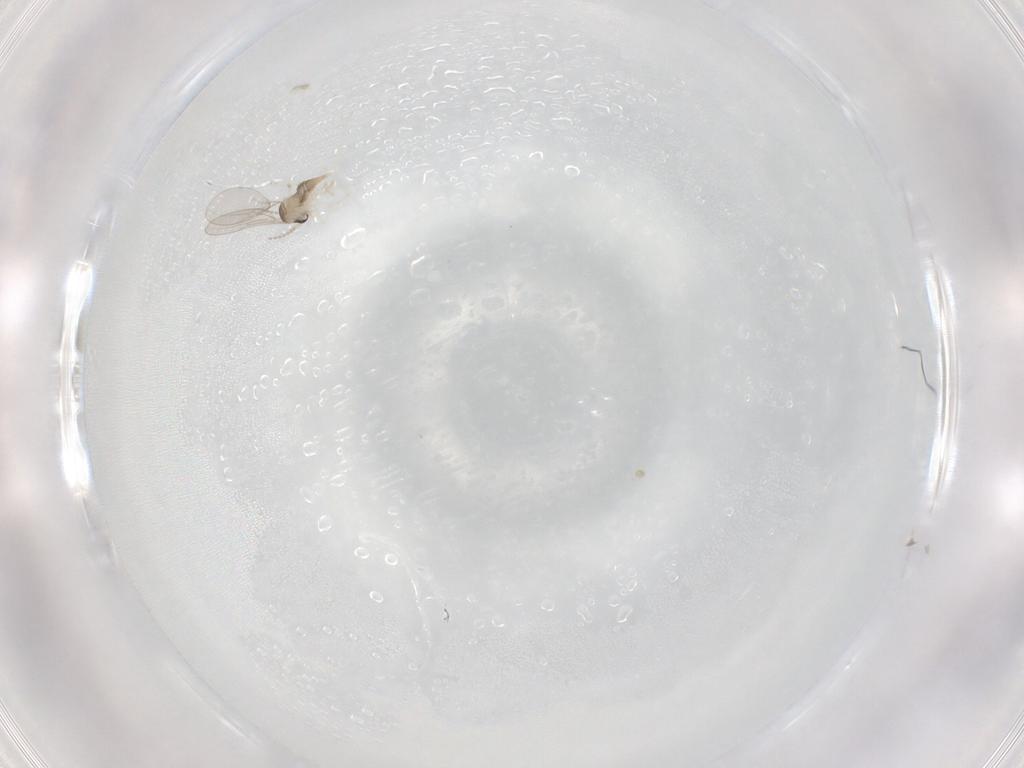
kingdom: Animalia
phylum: Arthropoda
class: Insecta
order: Diptera
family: Cecidomyiidae
